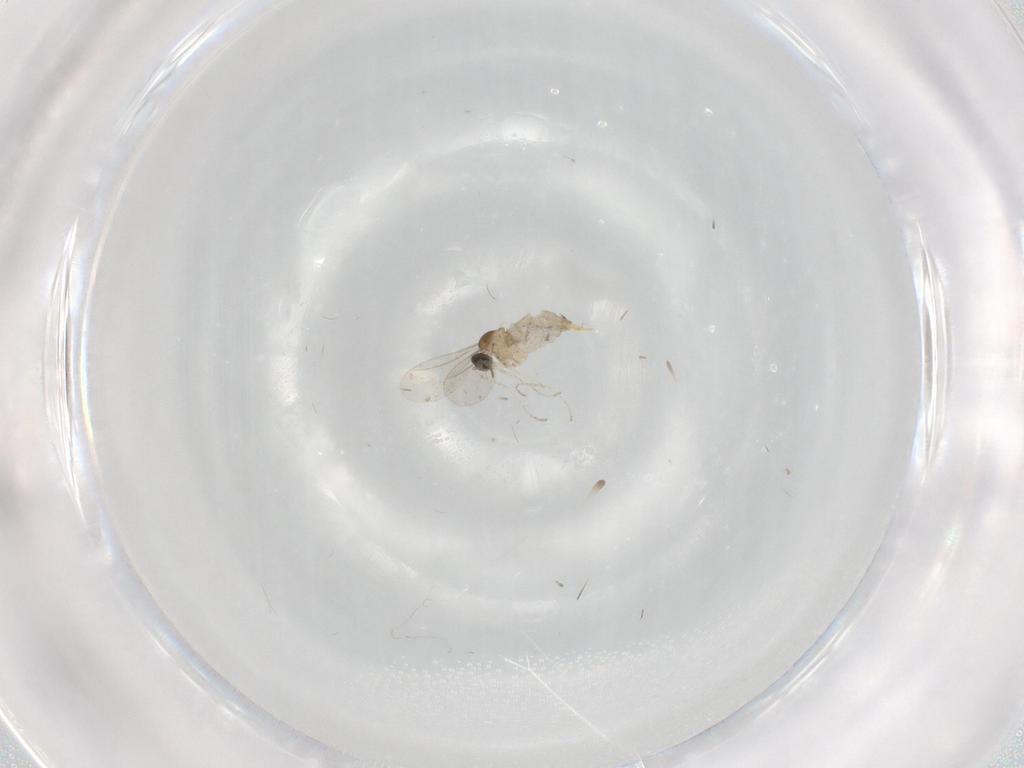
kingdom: Animalia
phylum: Arthropoda
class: Insecta
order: Diptera
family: Cecidomyiidae
